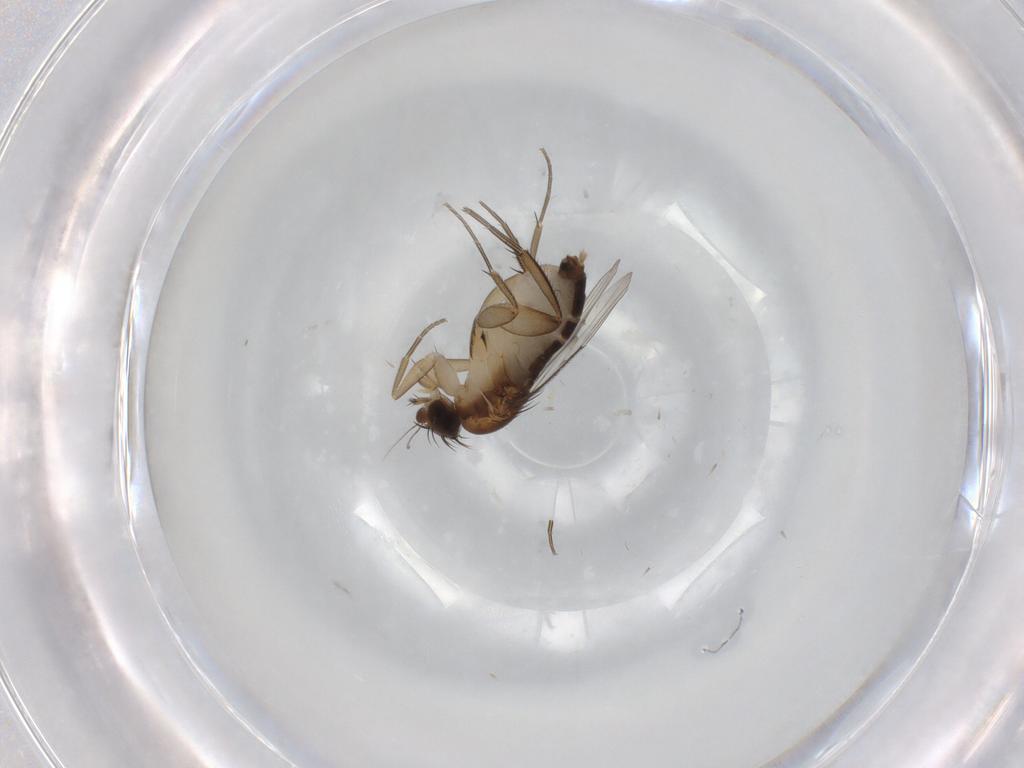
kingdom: Animalia
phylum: Arthropoda
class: Insecta
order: Diptera
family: Phoridae
